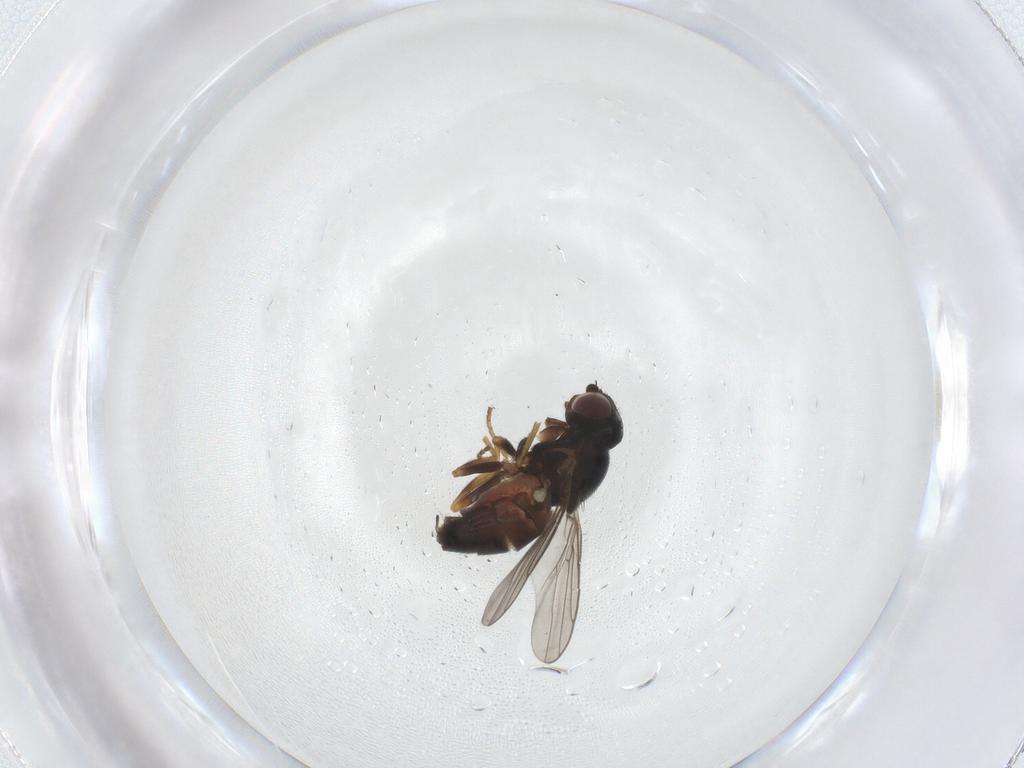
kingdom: Animalia
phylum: Arthropoda
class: Insecta
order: Diptera
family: Chloropidae
